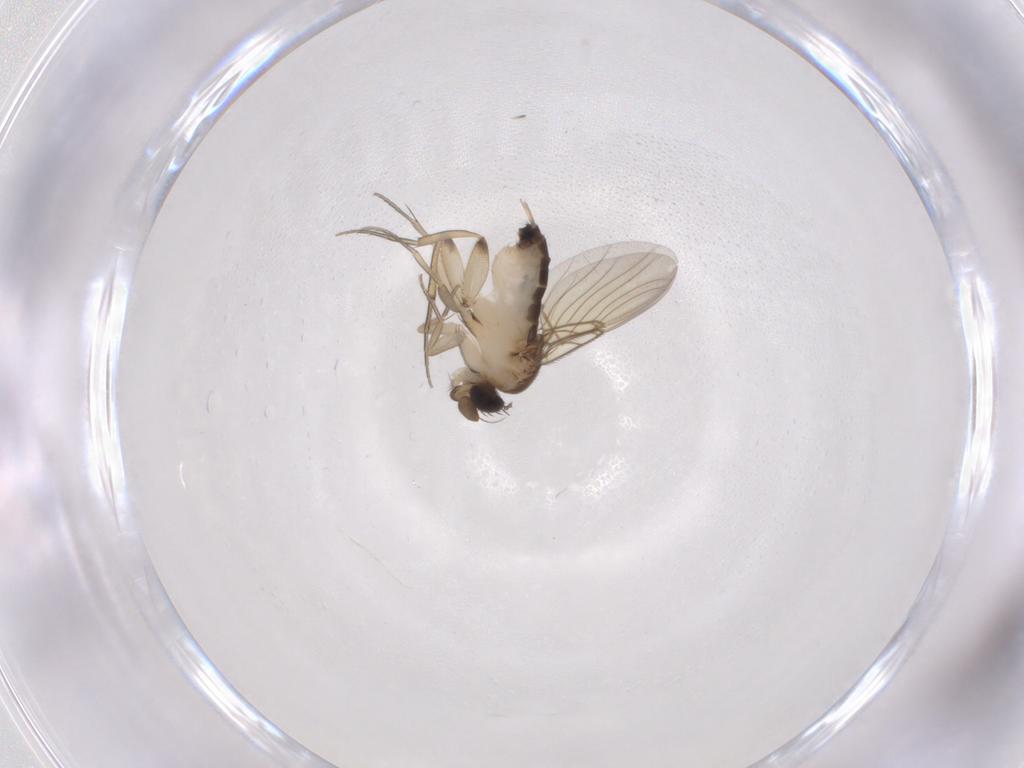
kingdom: Animalia
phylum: Arthropoda
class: Insecta
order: Diptera
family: Phoridae
